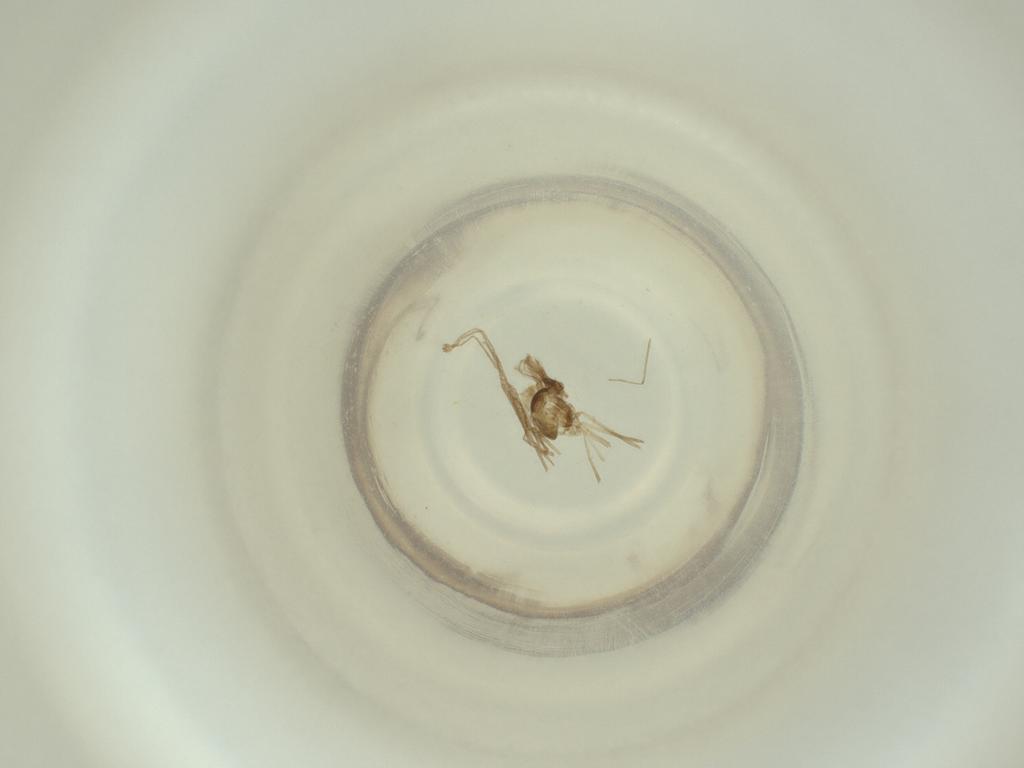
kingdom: Animalia
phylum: Arthropoda
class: Insecta
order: Diptera
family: Cecidomyiidae
